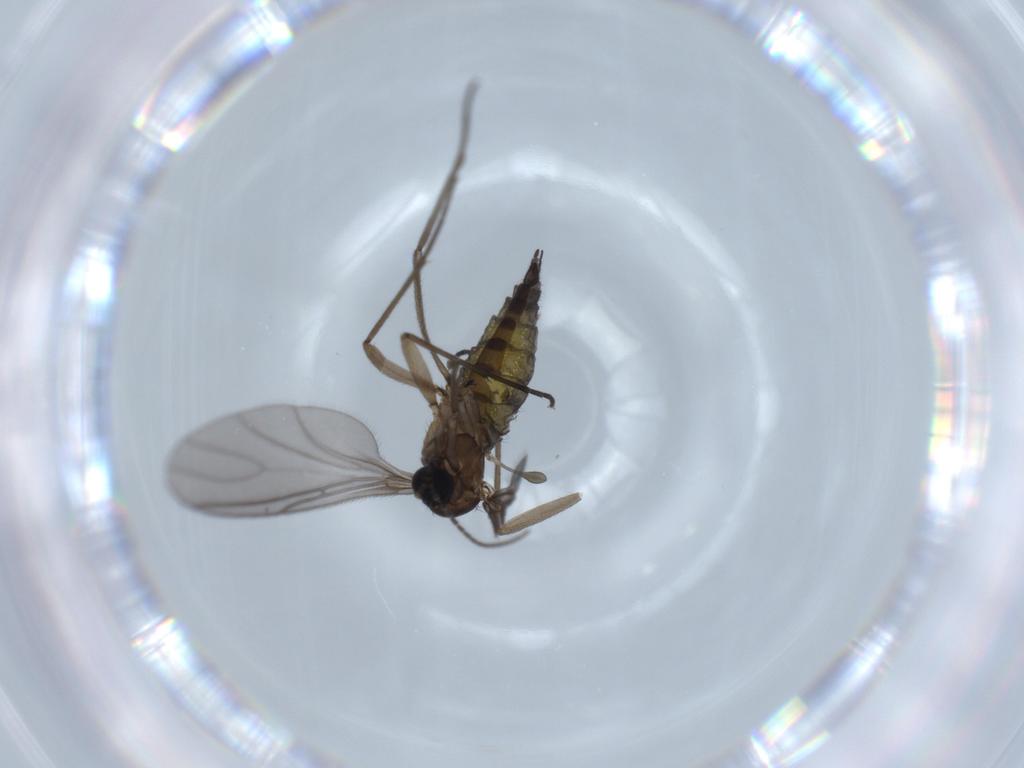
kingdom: Animalia
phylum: Arthropoda
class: Insecta
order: Diptera
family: Sciaridae
